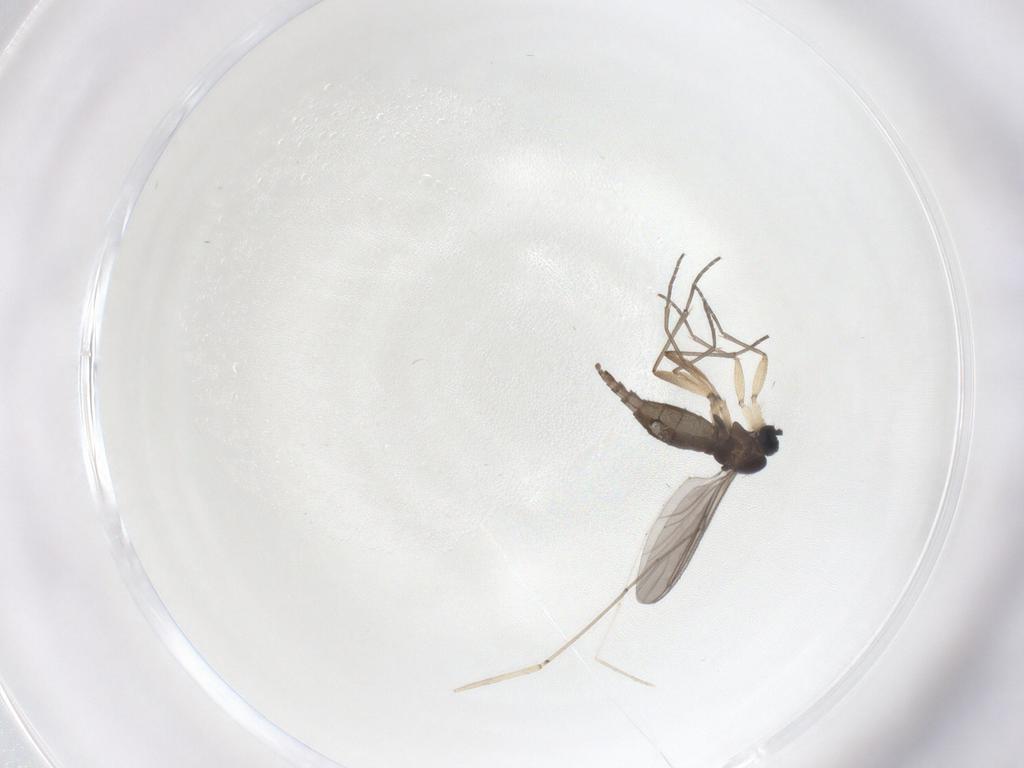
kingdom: Animalia
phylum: Arthropoda
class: Insecta
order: Diptera
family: Sciaridae
